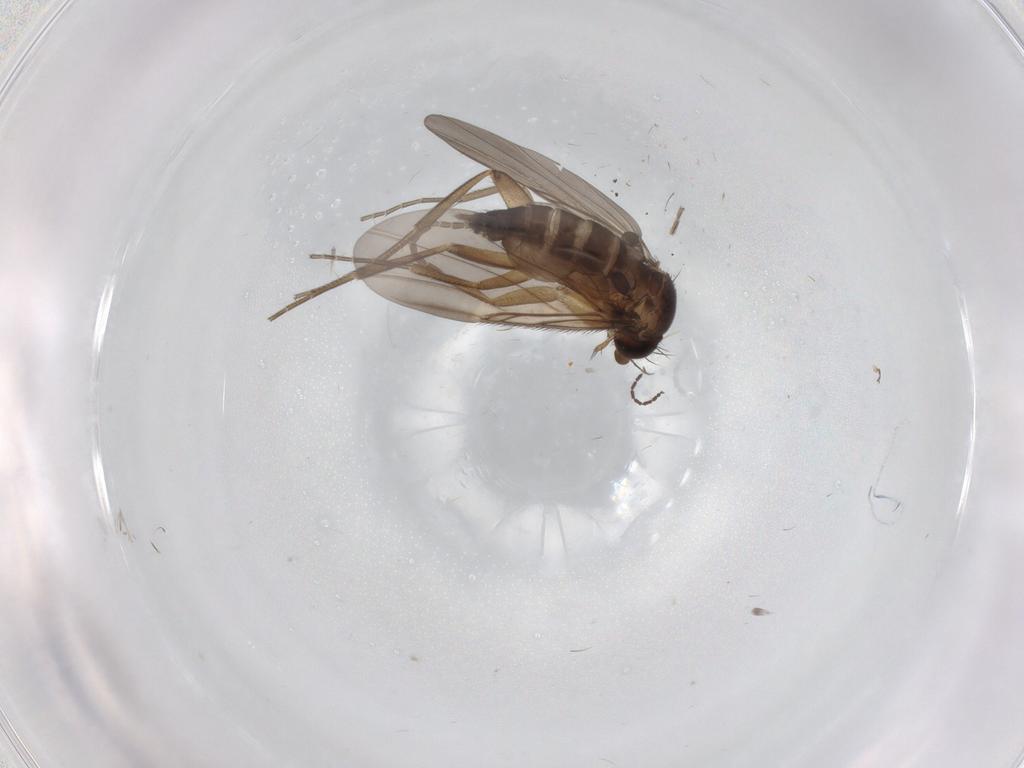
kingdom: Animalia
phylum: Arthropoda
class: Insecta
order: Diptera
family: Phoridae
